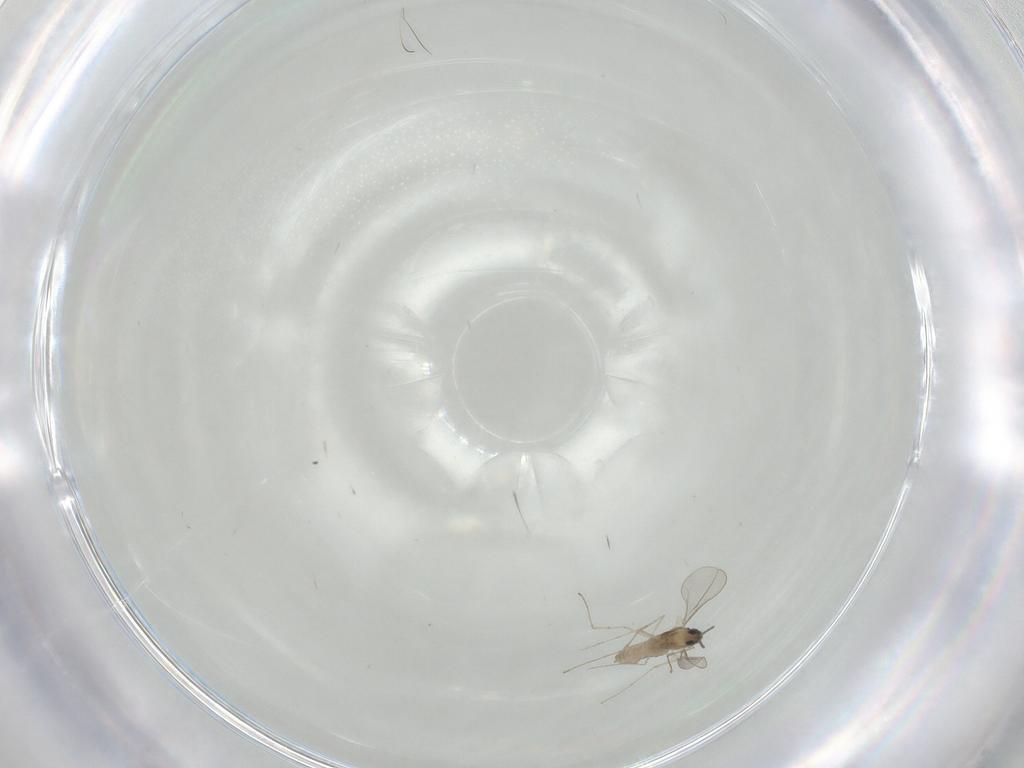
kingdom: Animalia
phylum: Arthropoda
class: Insecta
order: Diptera
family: Cecidomyiidae
